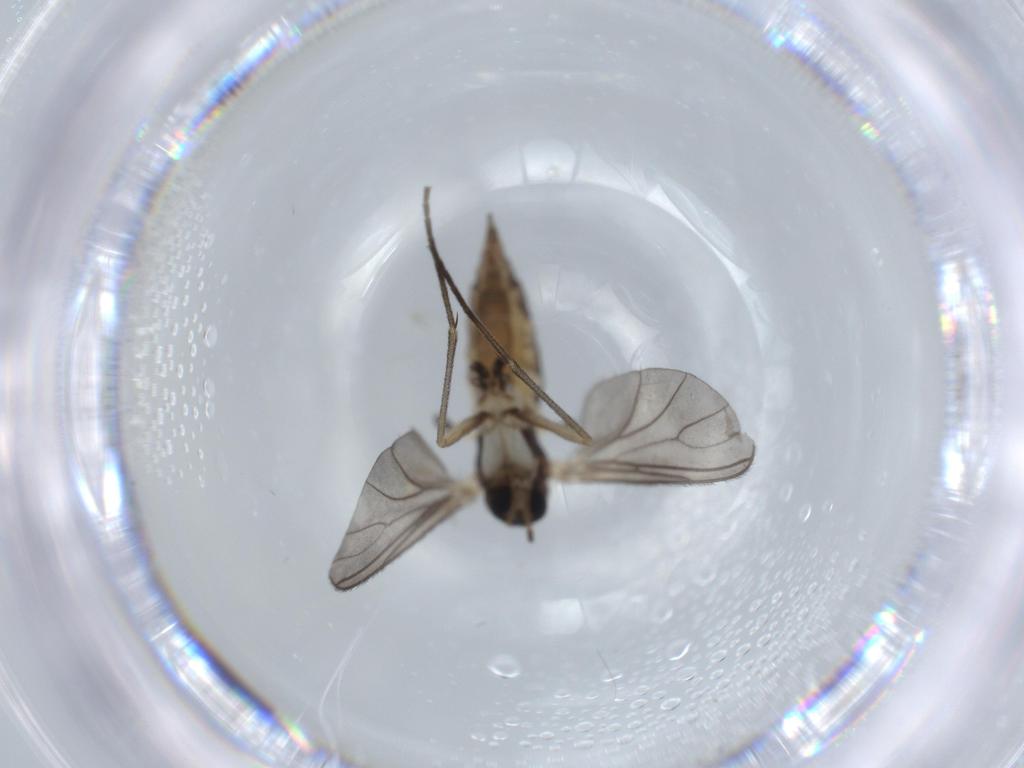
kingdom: Animalia
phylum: Arthropoda
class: Insecta
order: Diptera
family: Sciaridae
